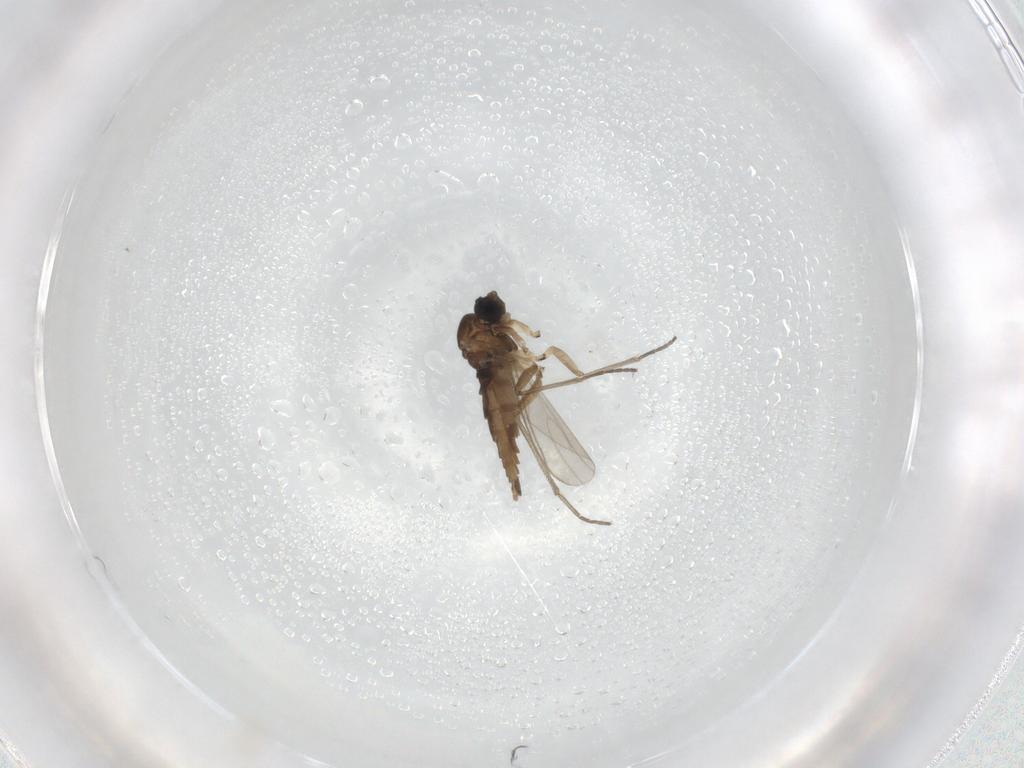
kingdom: Animalia
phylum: Arthropoda
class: Insecta
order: Diptera
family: Sciaridae
